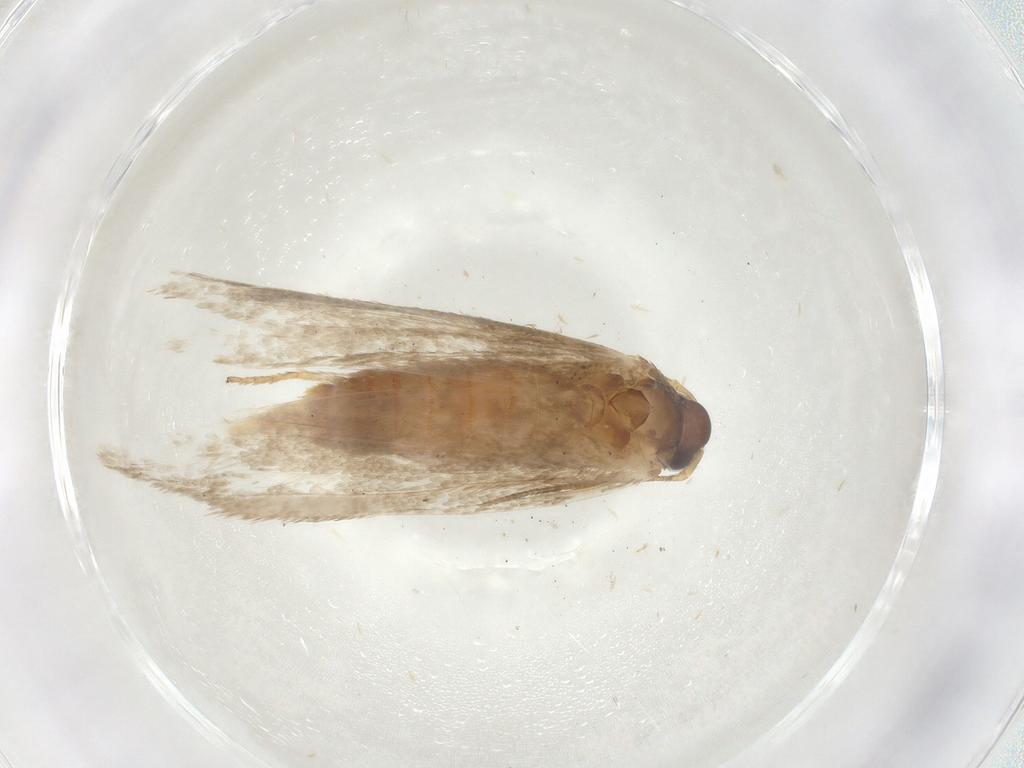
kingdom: Animalia
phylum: Arthropoda
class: Insecta
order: Lepidoptera
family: Coleophoridae
